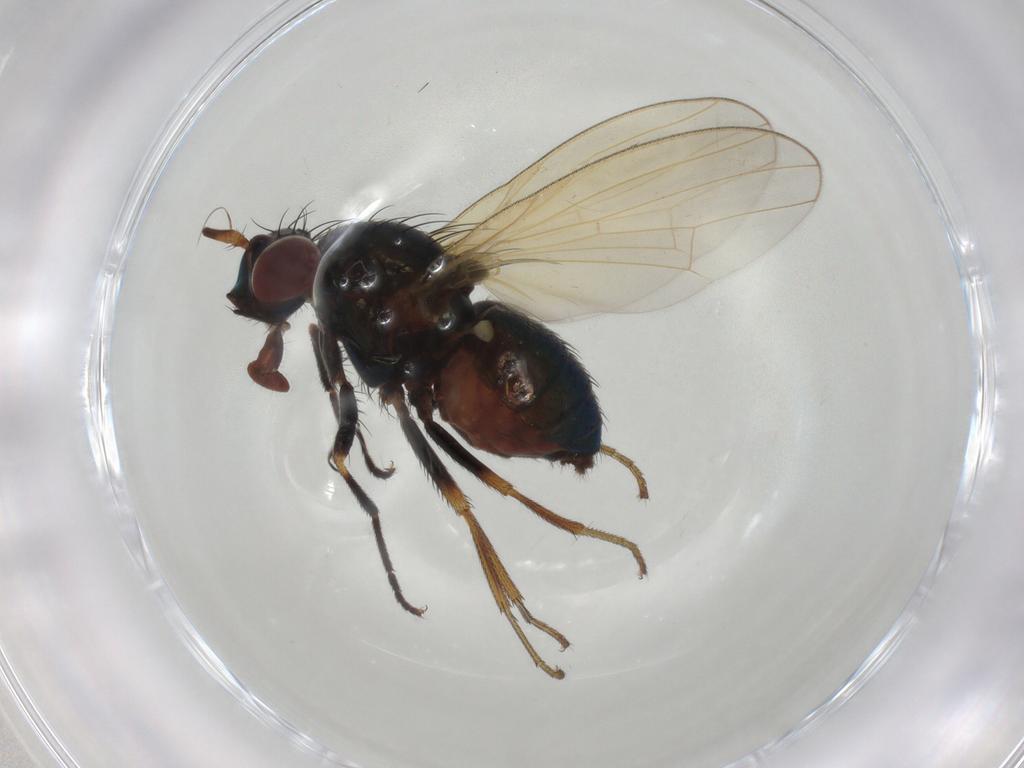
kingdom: Animalia
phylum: Arthropoda
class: Insecta
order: Diptera
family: Lauxaniidae
